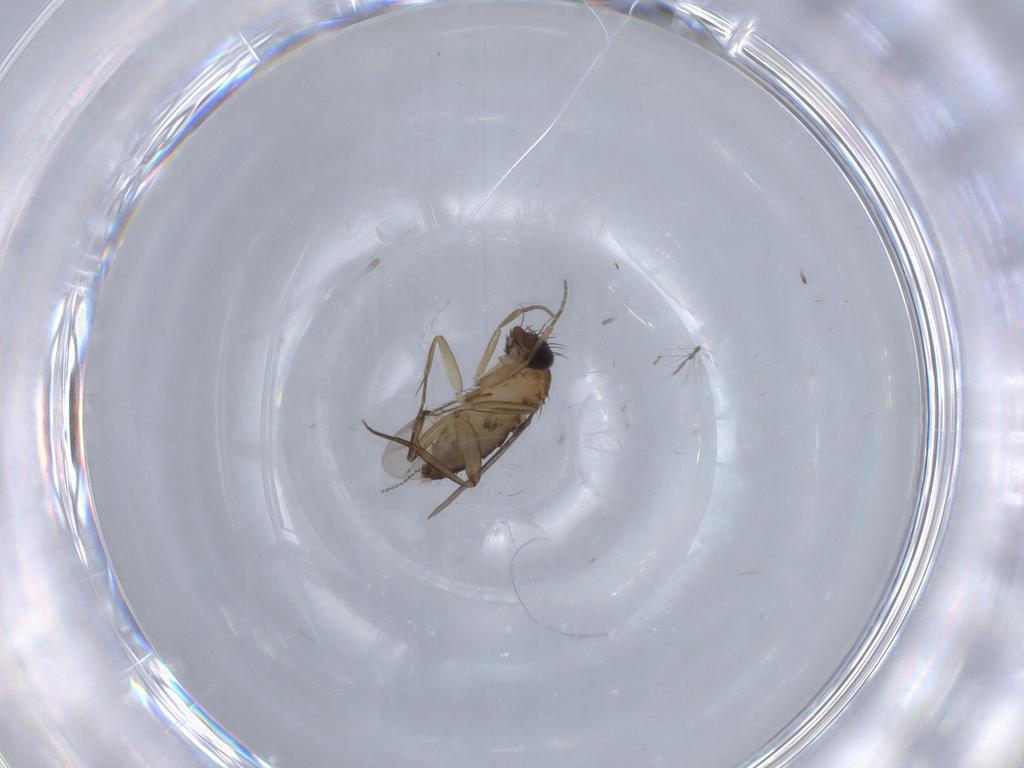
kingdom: Animalia
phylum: Arthropoda
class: Insecta
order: Diptera
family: Phoridae
